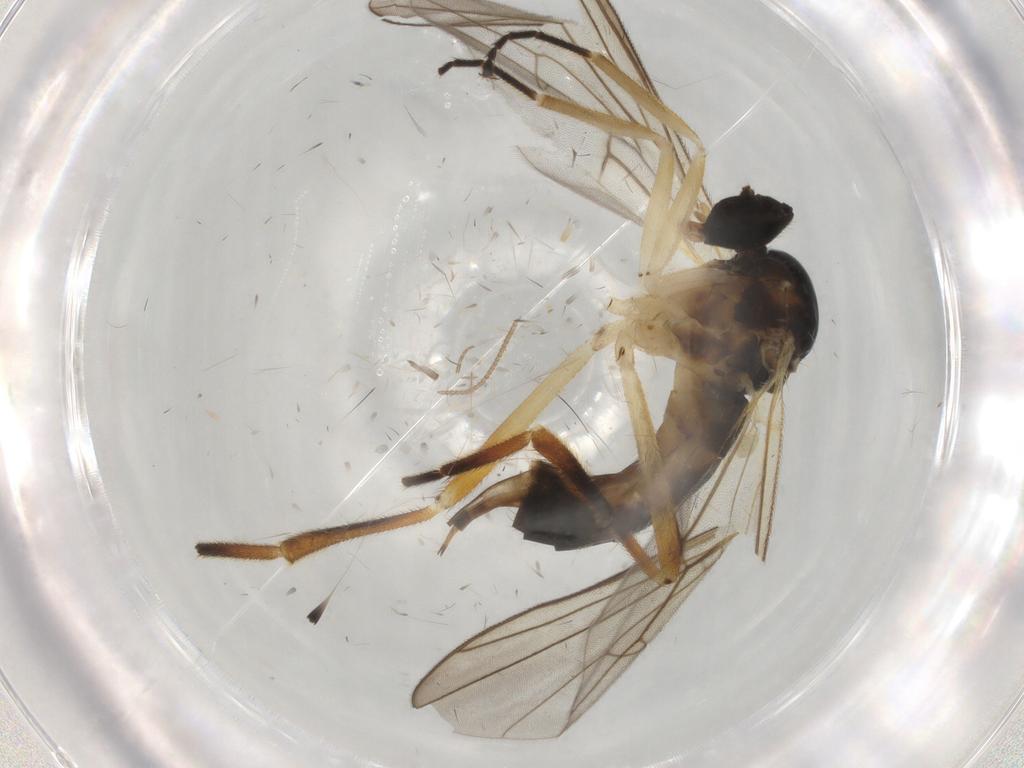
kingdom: Animalia
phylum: Arthropoda
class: Insecta
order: Diptera
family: Hybotidae
